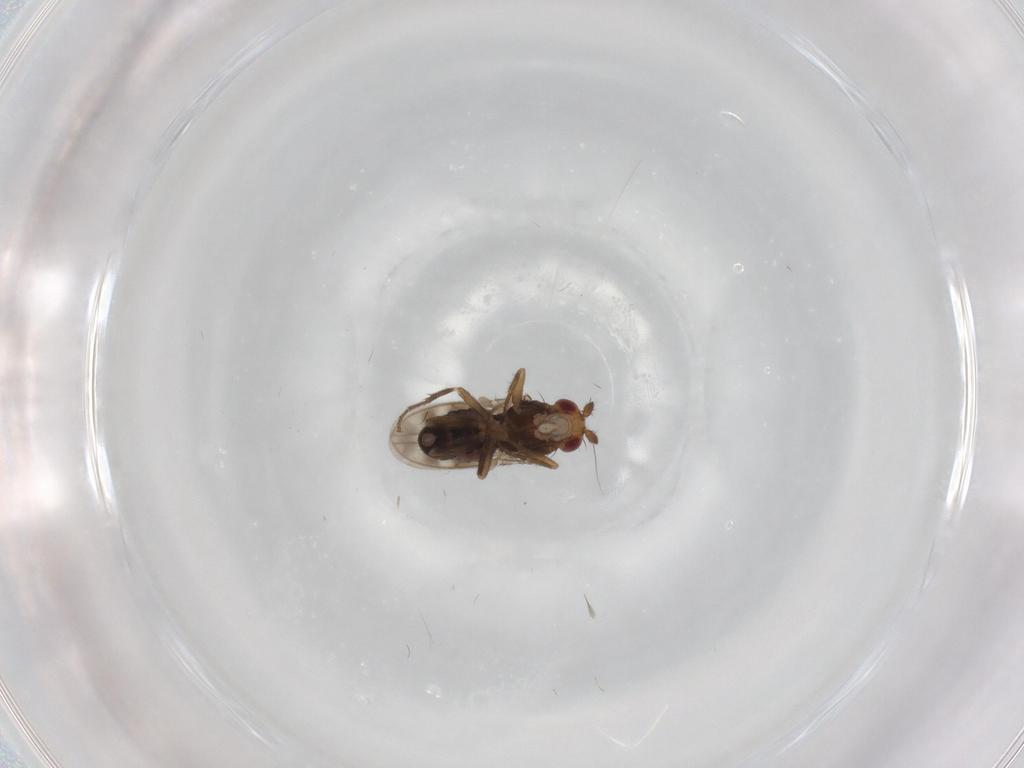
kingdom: Animalia
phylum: Arthropoda
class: Insecta
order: Diptera
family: Sphaeroceridae
